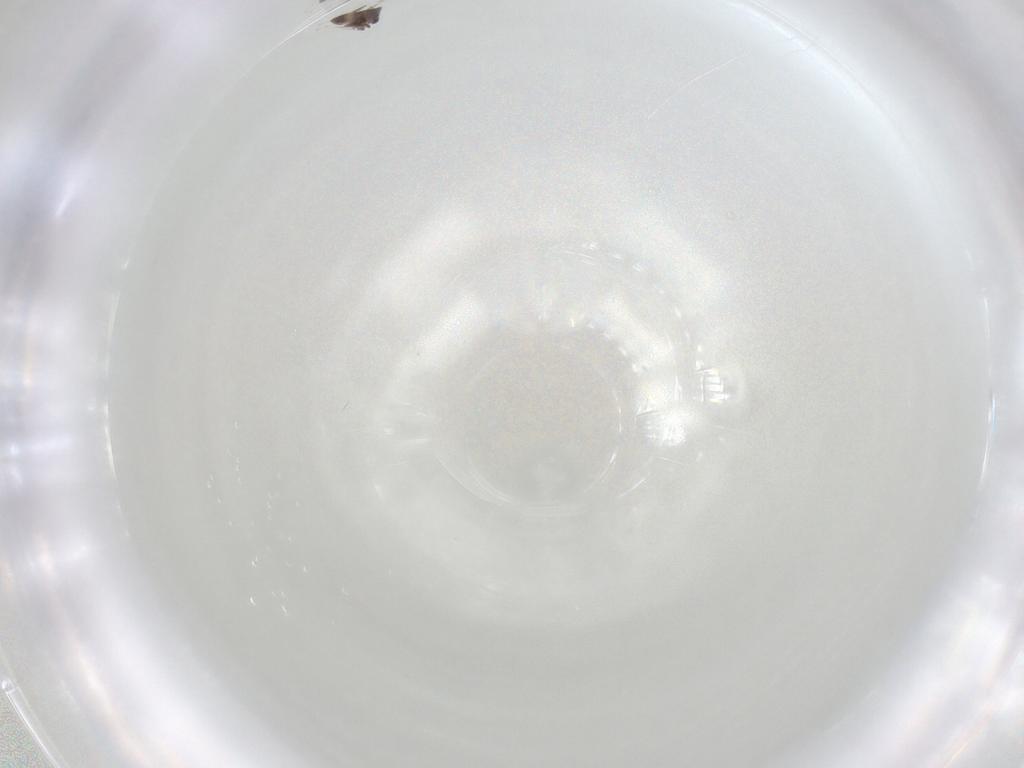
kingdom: Animalia
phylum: Arthropoda
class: Insecta
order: Hymenoptera
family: Mymaridae
